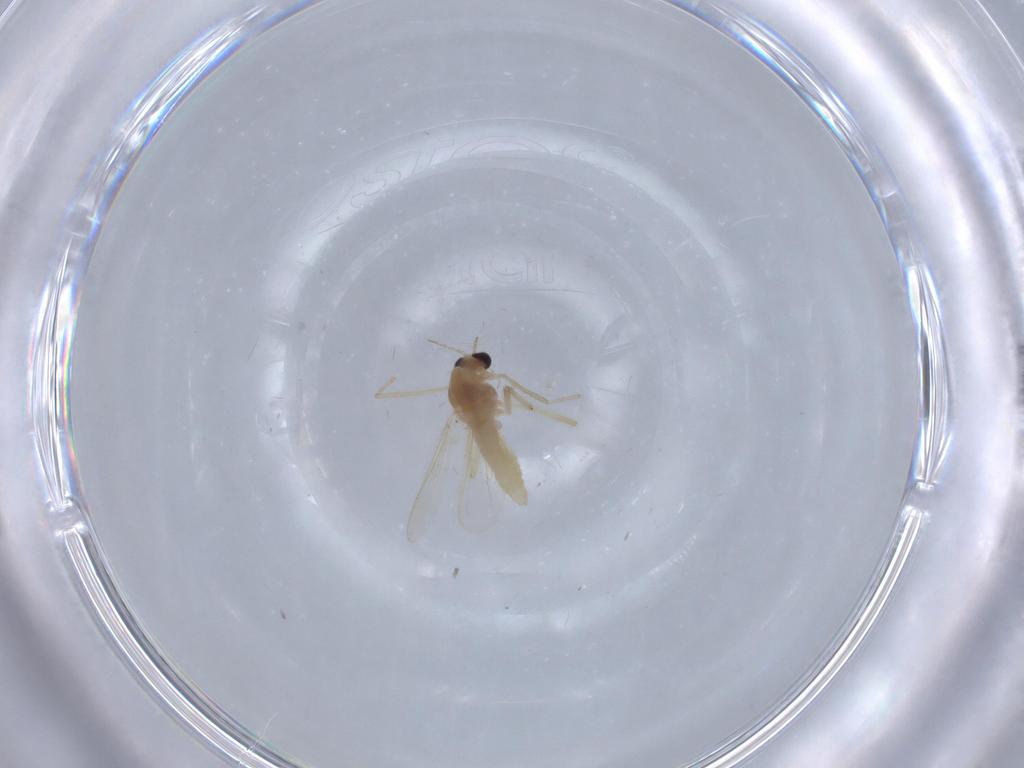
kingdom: Animalia
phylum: Arthropoda
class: Insecta
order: Diptera
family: Chironomidae
